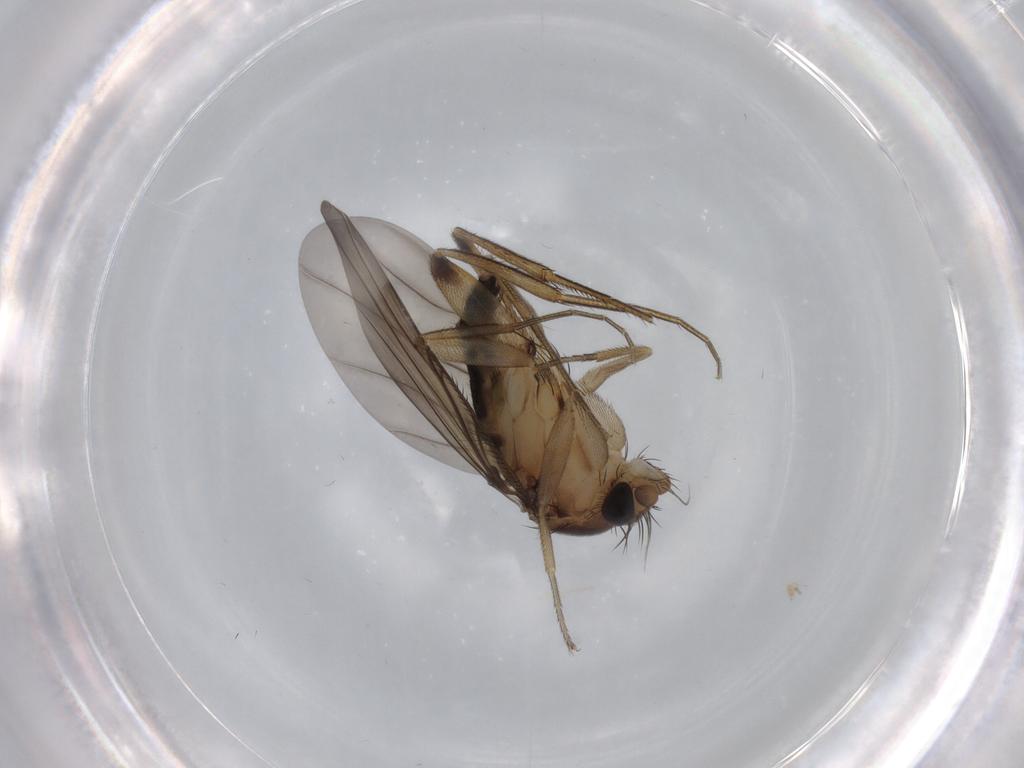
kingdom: Animalia
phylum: Arthropoda
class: Insecta
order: Diptera
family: Phoridae
